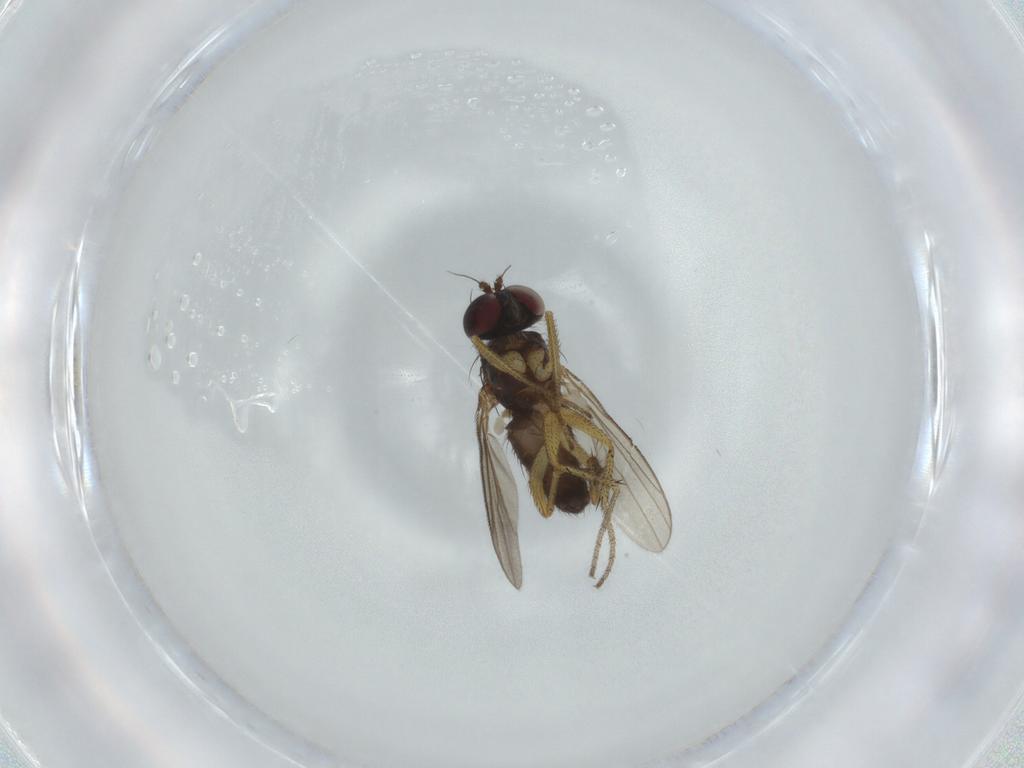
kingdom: Animalia
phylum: Arthropoda
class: Insecta
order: Diptera
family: Dolichopodidae
